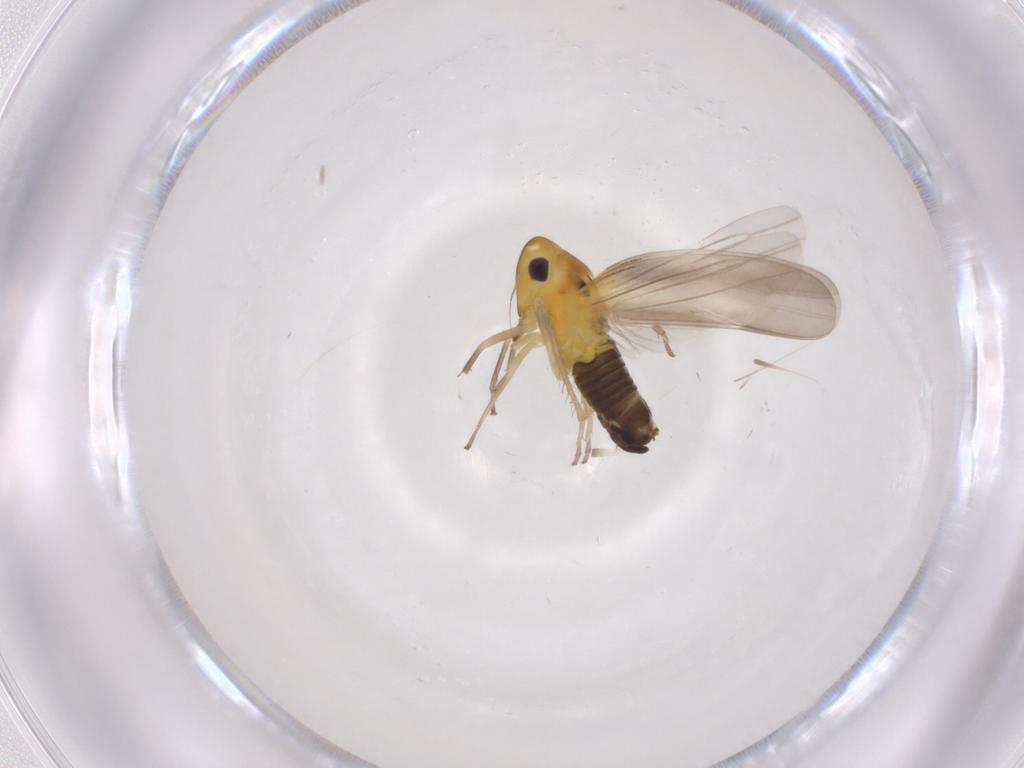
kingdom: Animalia
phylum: Arthropoda
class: Insecta
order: Hemiptera
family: Cicadellidae
